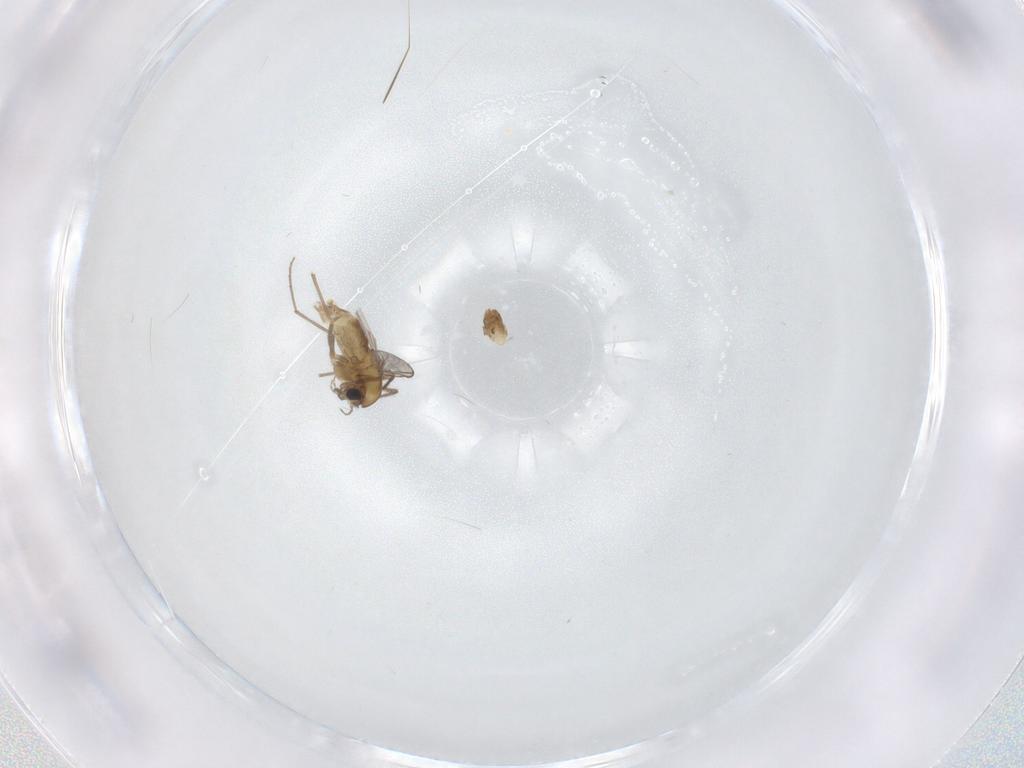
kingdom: Animalia
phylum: Arthropoda
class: Insecta
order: Diptera
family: Chironomidae
